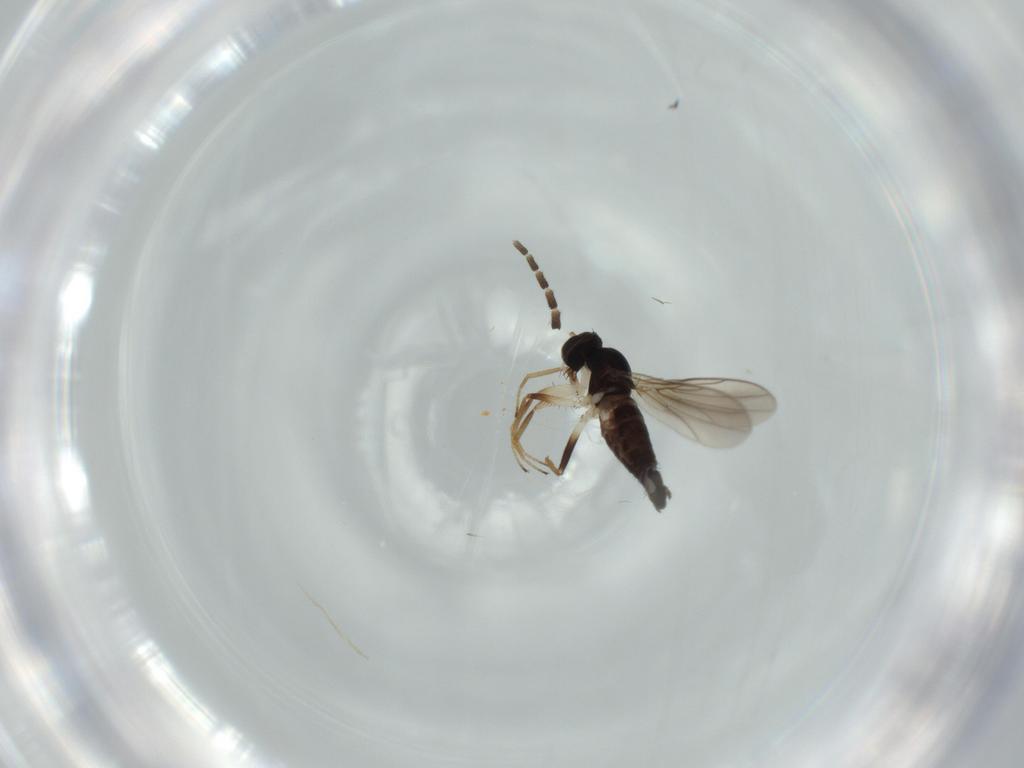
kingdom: Animalia
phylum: Arthropoda
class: Insecta
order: Diptera
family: Hybotidae
